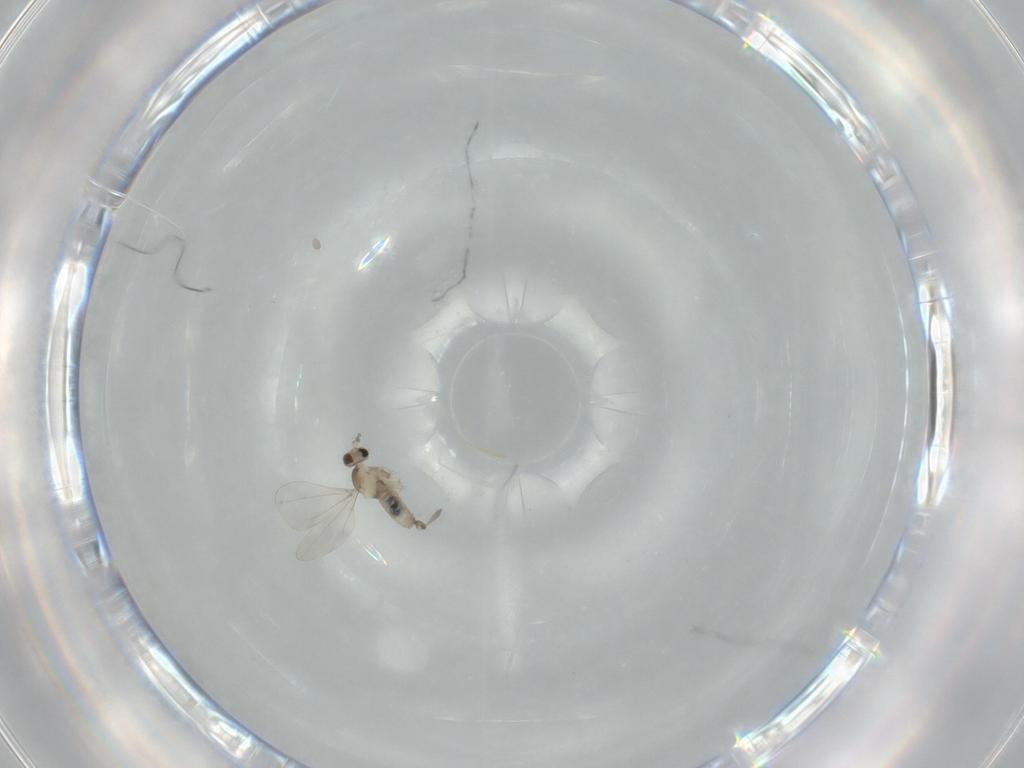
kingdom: Animalia
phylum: Arthropoda
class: Insecta
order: Diptera
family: Cecidomyiidae
